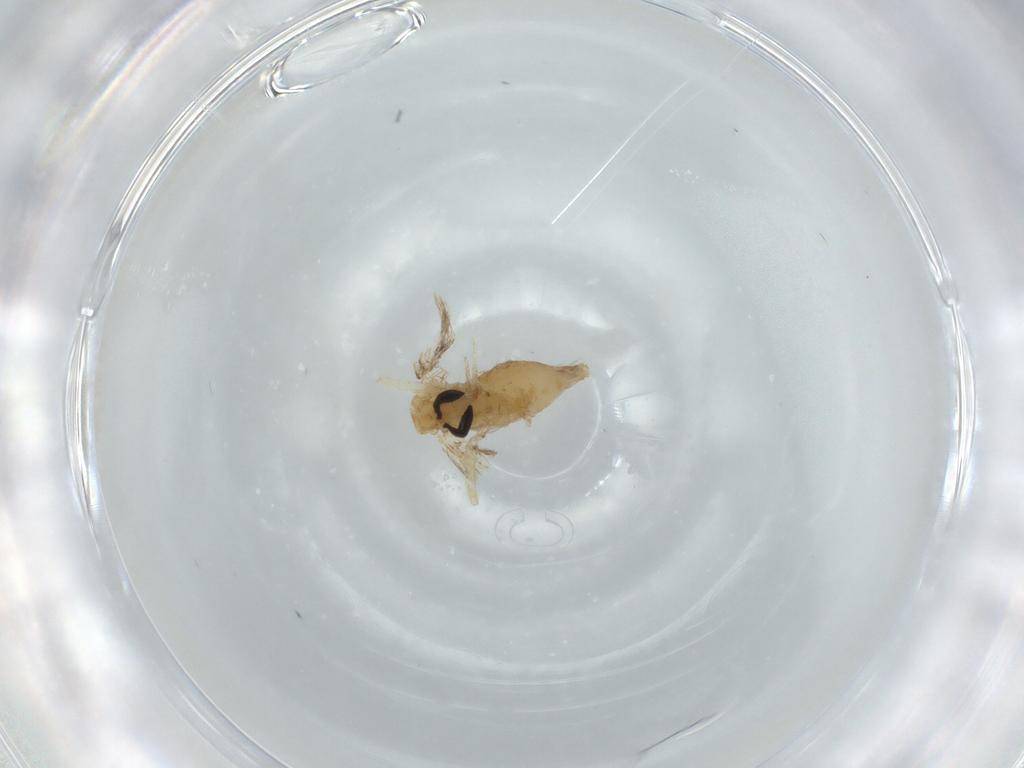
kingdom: Animalia
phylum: Arthropoda
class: Insecta
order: Diptera
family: Chironomidae
